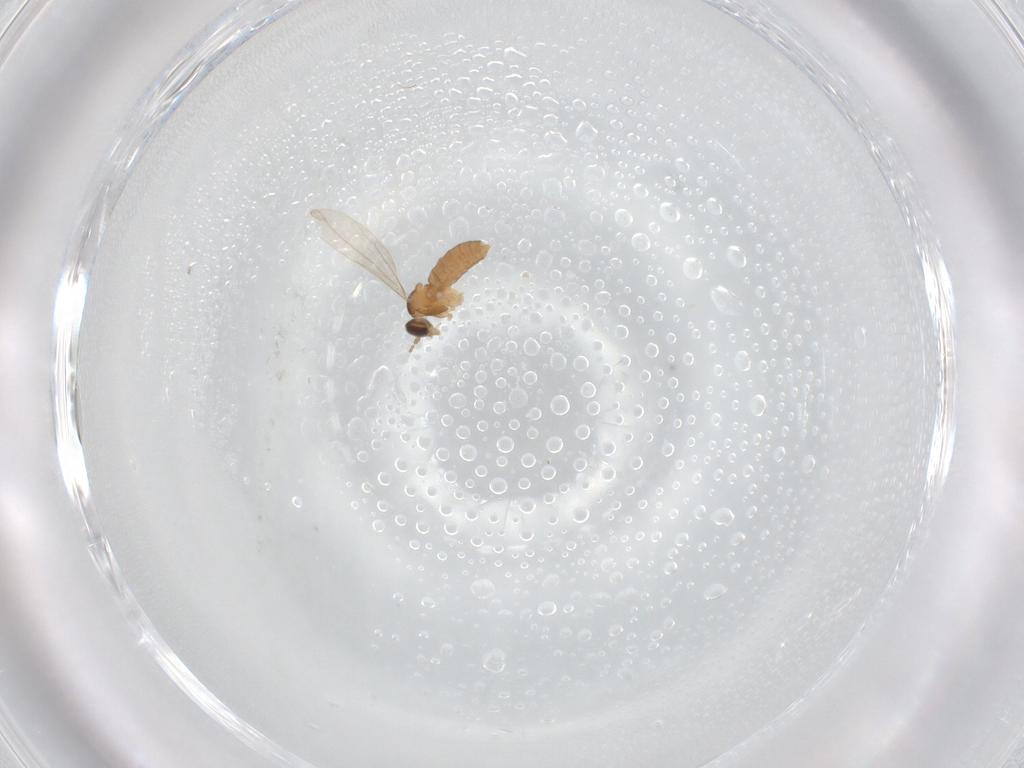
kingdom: Animalia
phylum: Arthropoda
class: Insecta
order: Diptera
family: Cecidomyiidae
